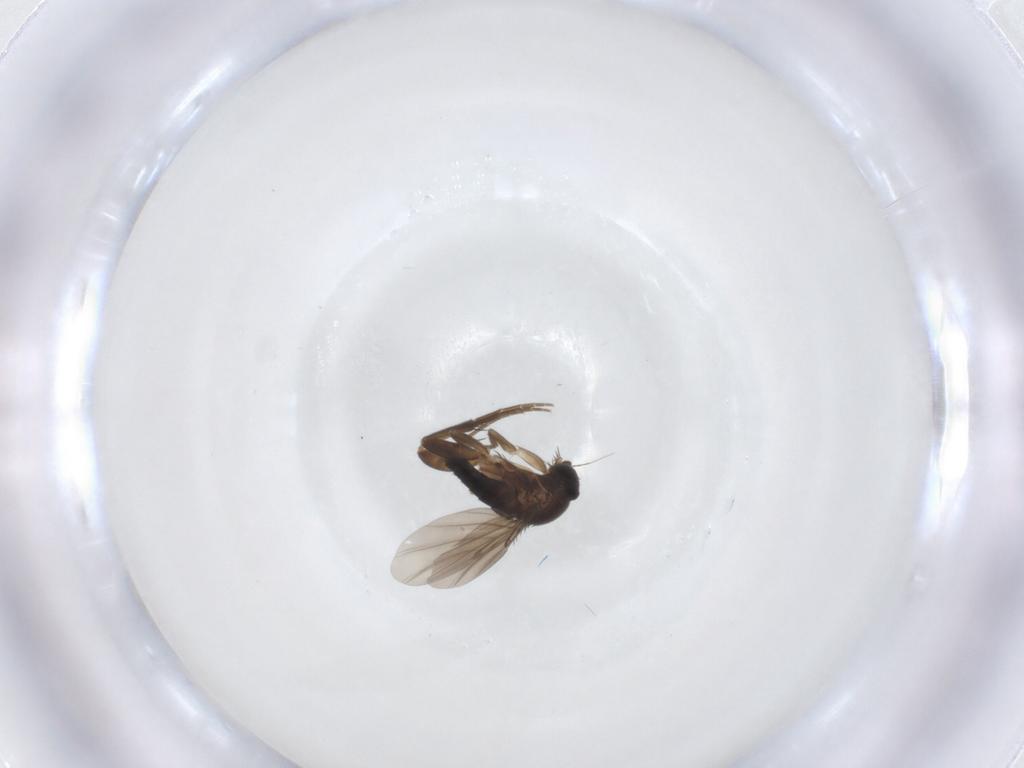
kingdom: Animalia
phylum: Arthropoda
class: Insecta
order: Diptera
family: Phoridae
